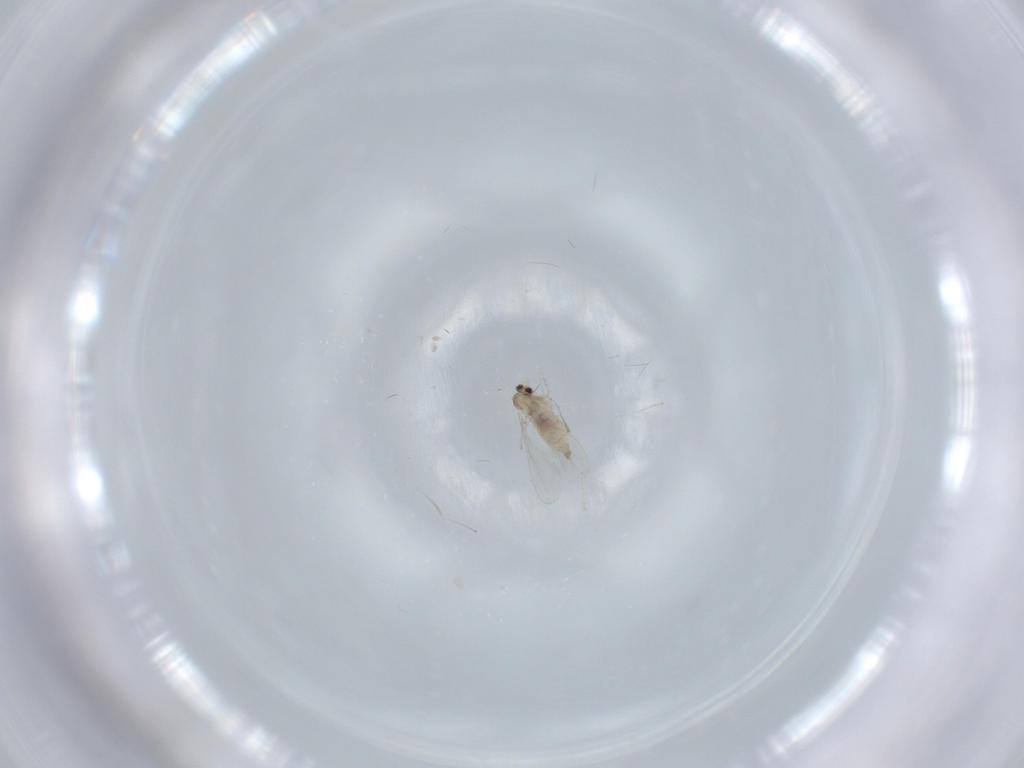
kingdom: Animalia
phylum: Arthropoda
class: Insecta
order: Diptera
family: Cecidomyiidae
